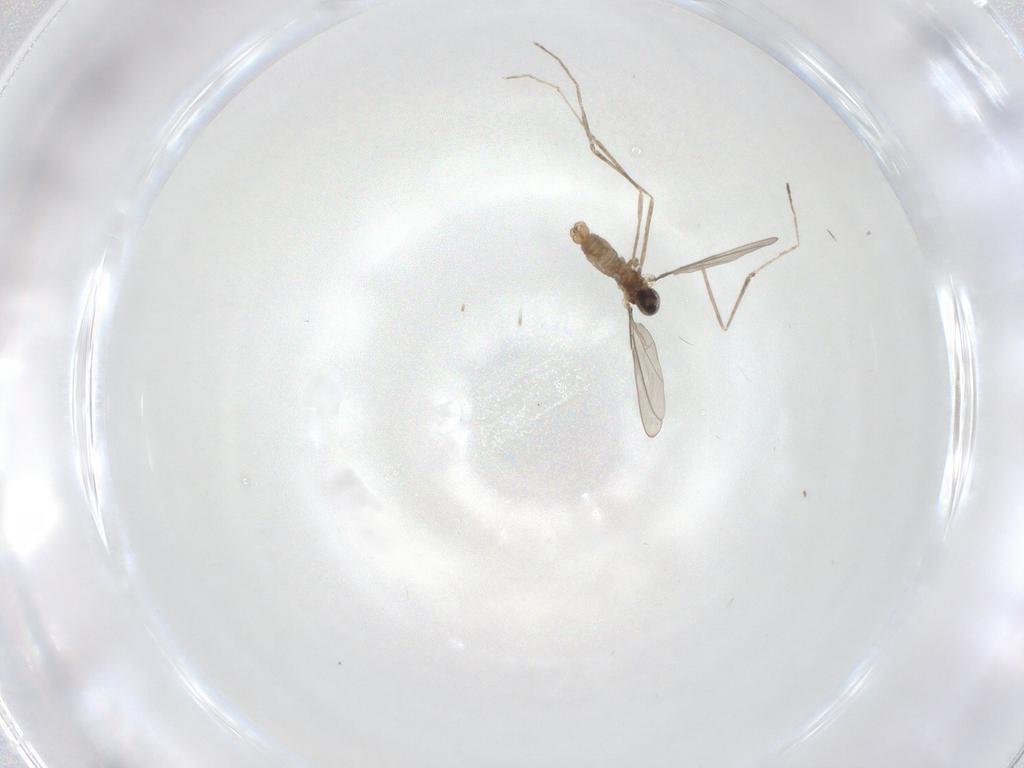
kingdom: Animalia
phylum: Arthropoda
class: Insecta
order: Diptera
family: Cecidomyiidae
